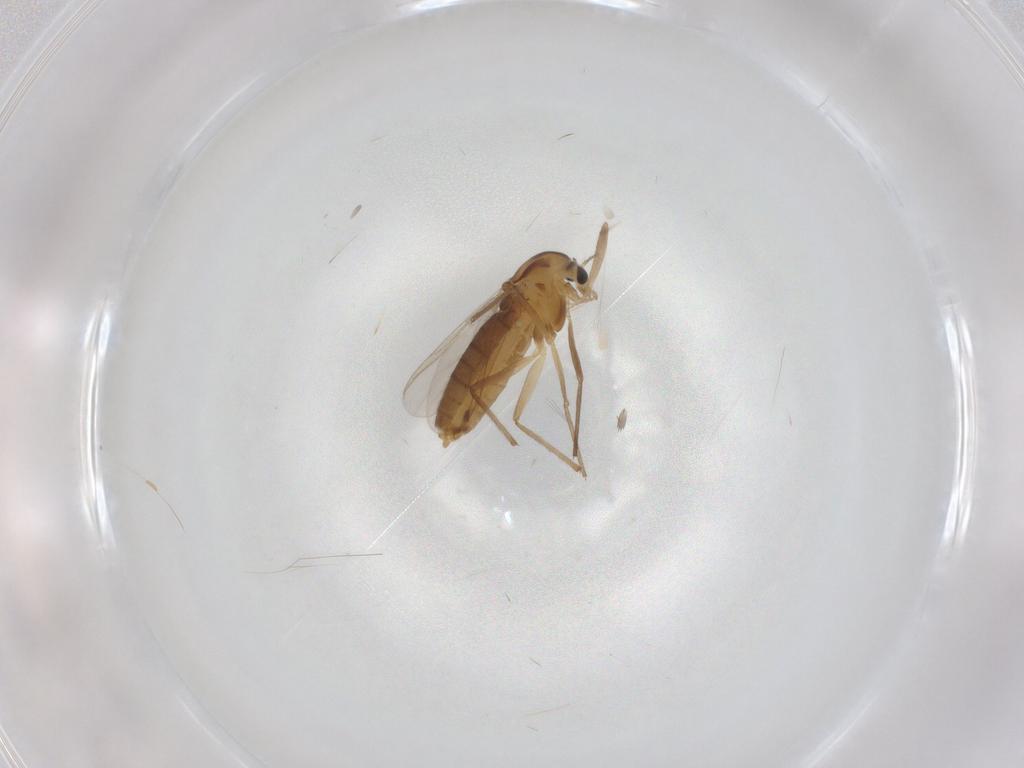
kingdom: Animalia
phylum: Arthropoda
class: Insecta
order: Diptera
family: Chironomidae
